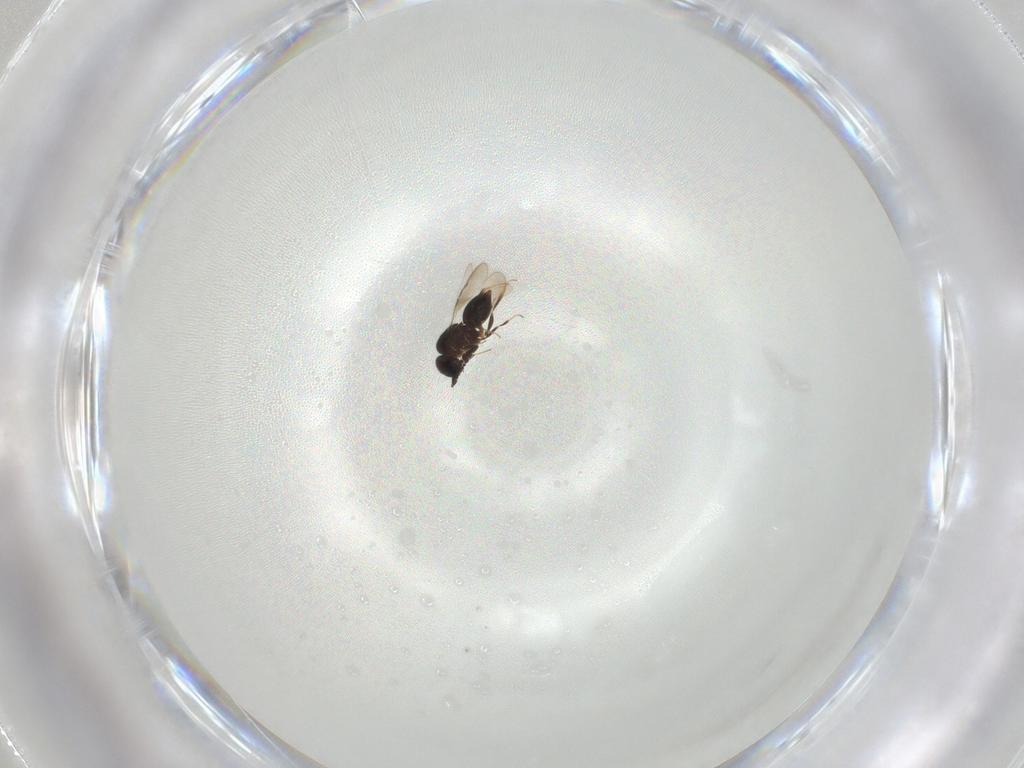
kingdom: Animalia
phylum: Arthropoda
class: Insecta
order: Hymenoptera
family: Diapriidae
